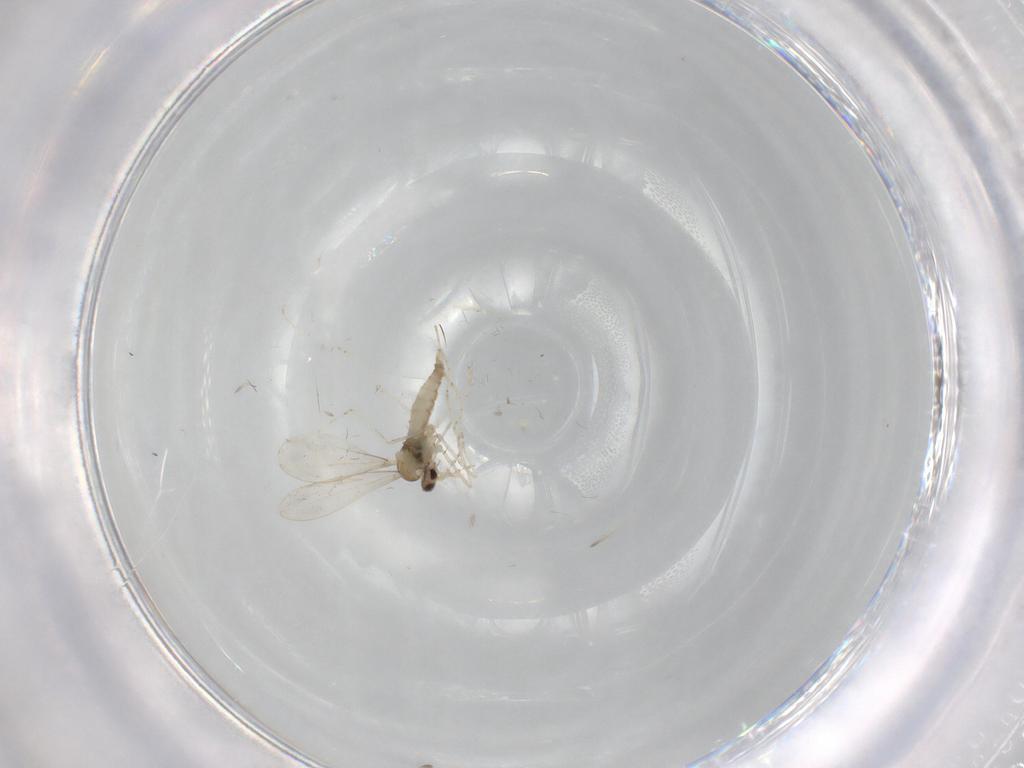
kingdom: Animalia
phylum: Arthropoda
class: Insecta
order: Diptera
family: Cecidomyiidae
